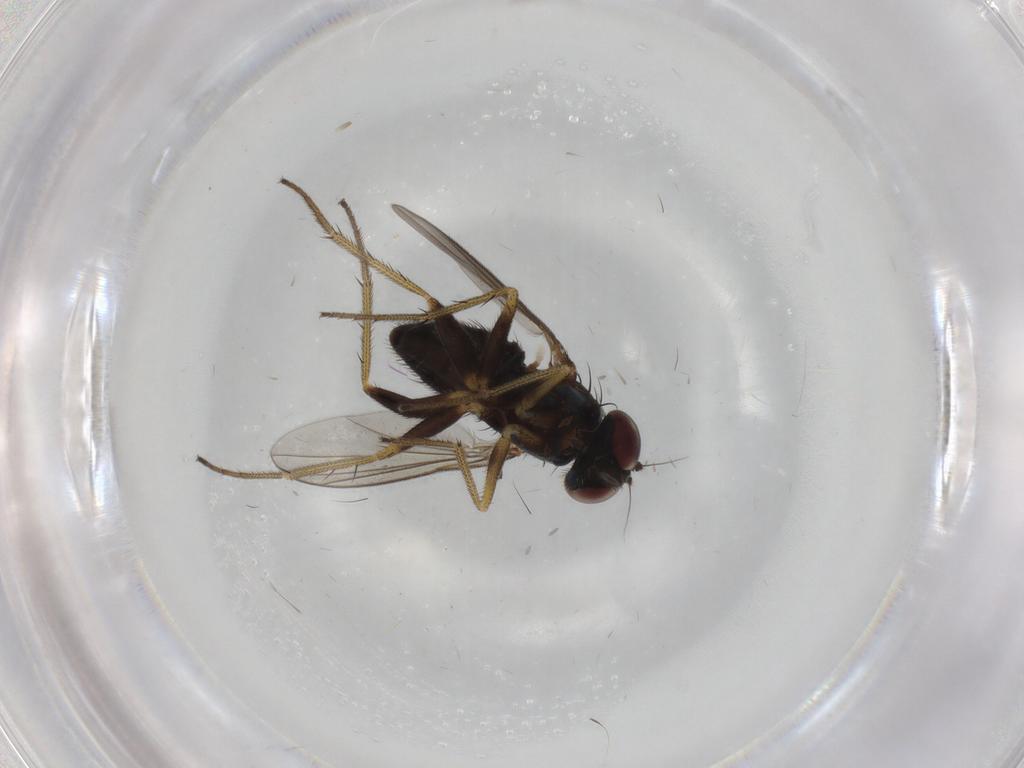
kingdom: Animalia
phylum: Arthropoda
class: Insecta
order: Diptera
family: Dolichopodidae
